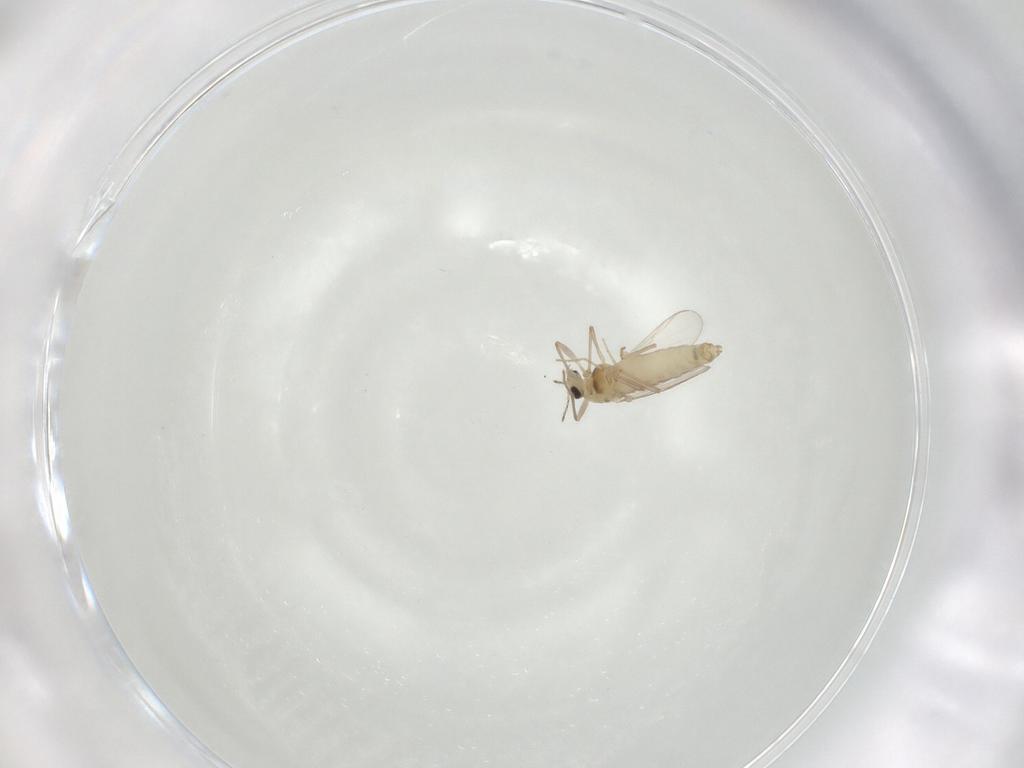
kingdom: Animalia
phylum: Arthropoda
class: Insecta
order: Diptera
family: Chironomidae
